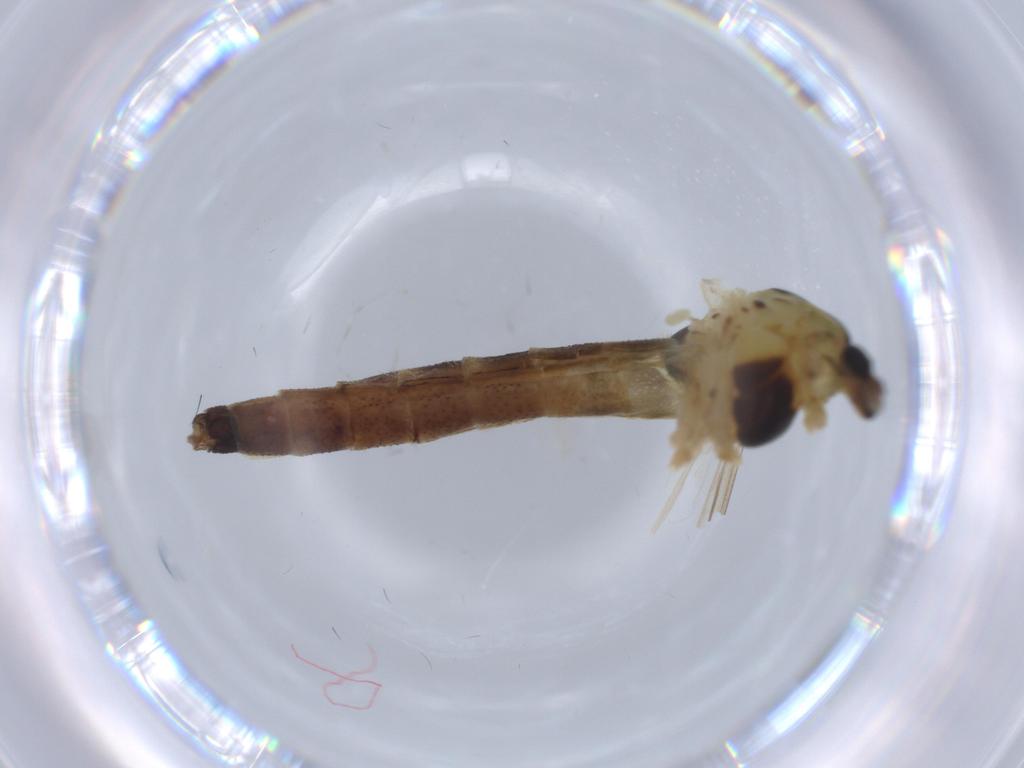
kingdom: Animalia
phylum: Arthropoda
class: Insecta
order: Diptera
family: Chironomidae
